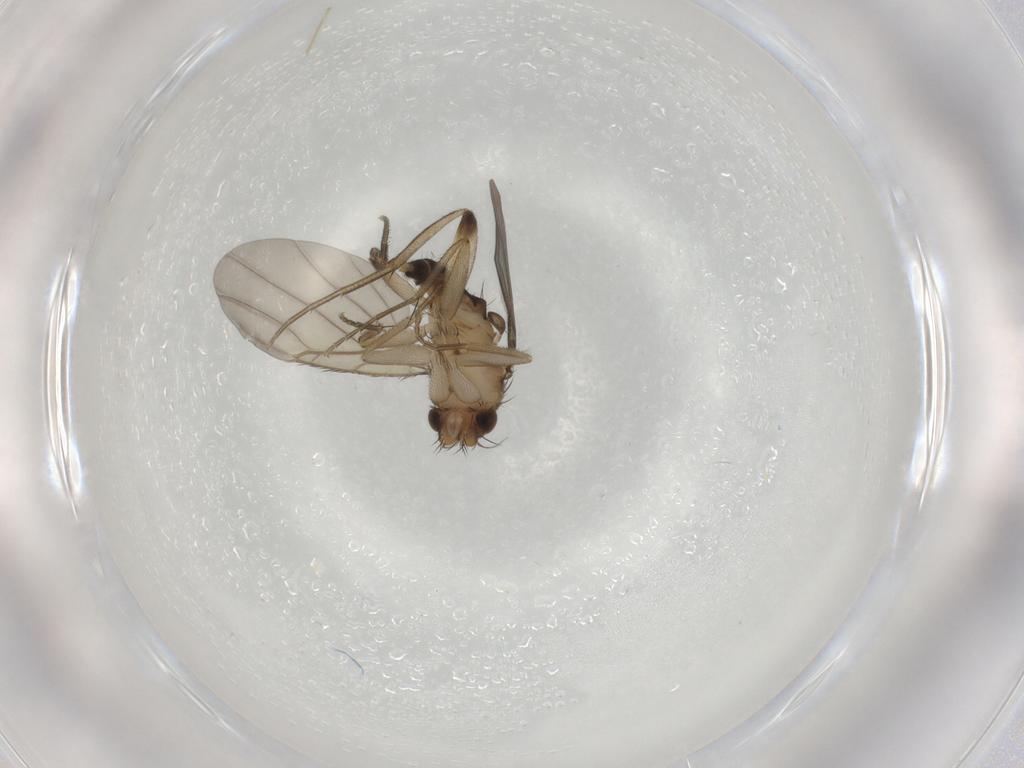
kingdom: Animalia
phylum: Arthropoda
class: Insecta
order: Diptera
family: Phoridae
